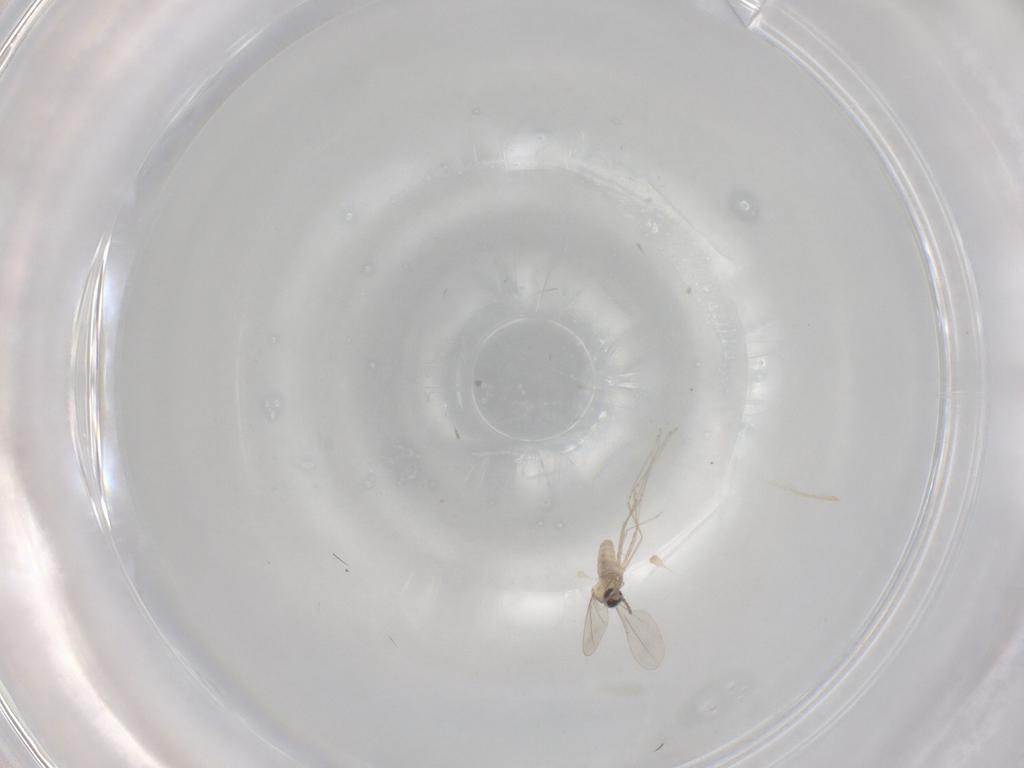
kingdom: Animalia
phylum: Arthropoda
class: Insecta
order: Diptera
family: Cecidomyiidae
